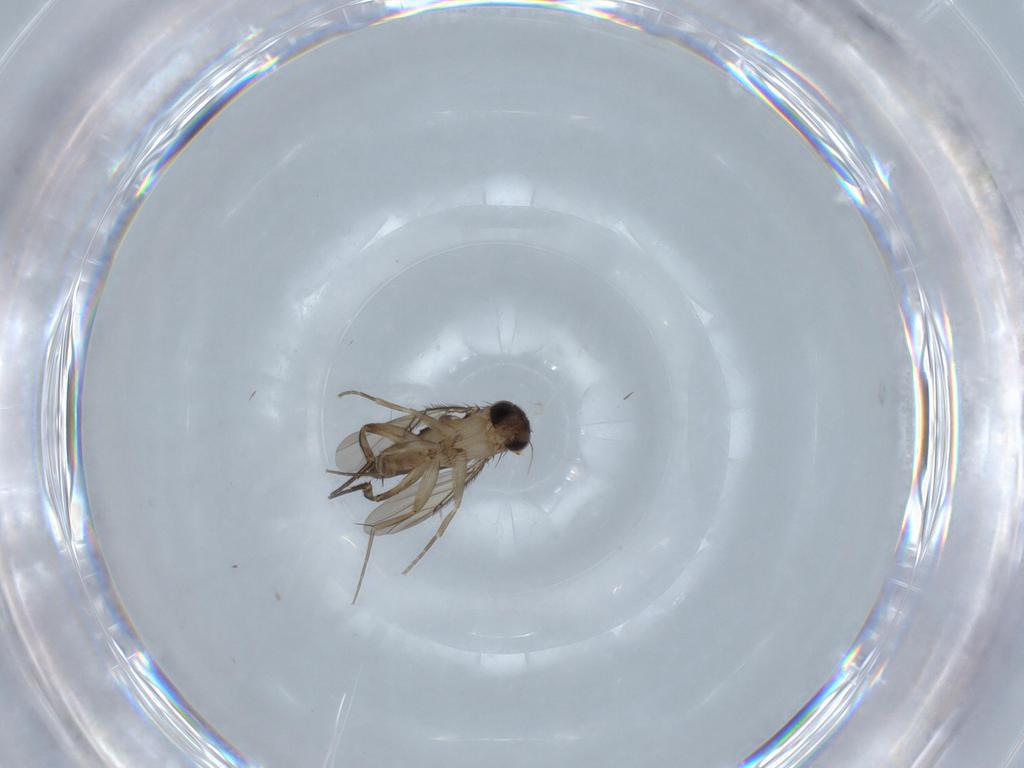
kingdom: Animalia
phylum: Arthropoda
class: Insecta
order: Diptera
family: Phoridae
